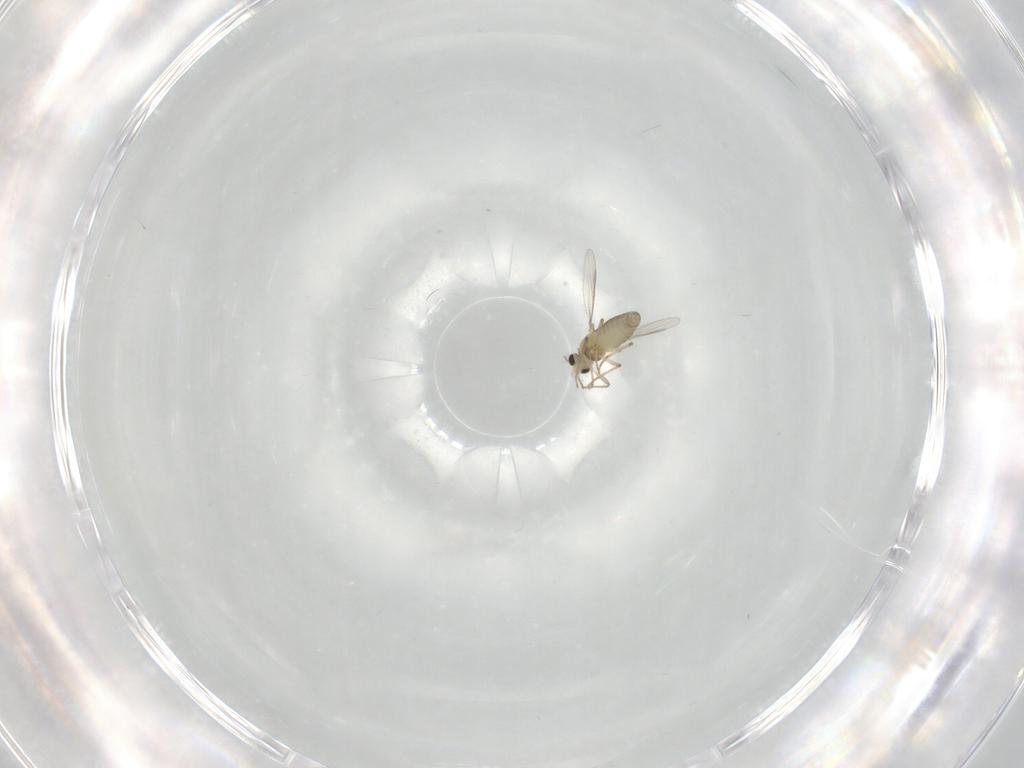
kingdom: Animalia
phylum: Arthropoda
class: Insecta
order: Diptera
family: Chironomidae
